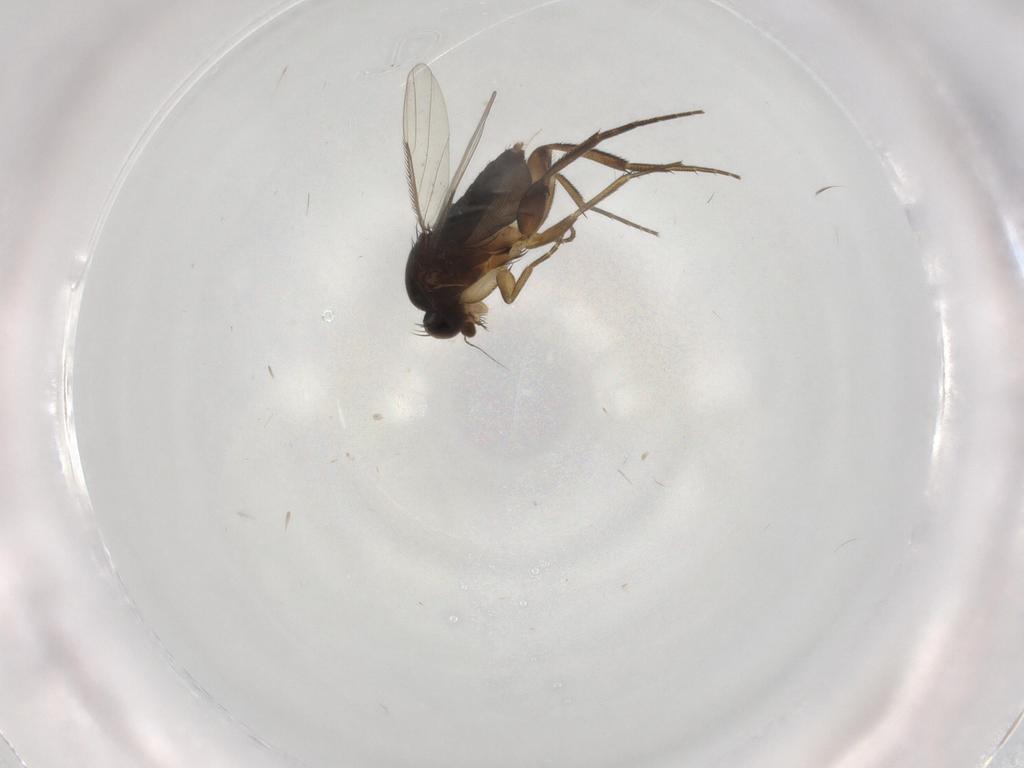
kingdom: Animalia
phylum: Arthropoda
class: Insecta
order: Diptera
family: Phoridae
